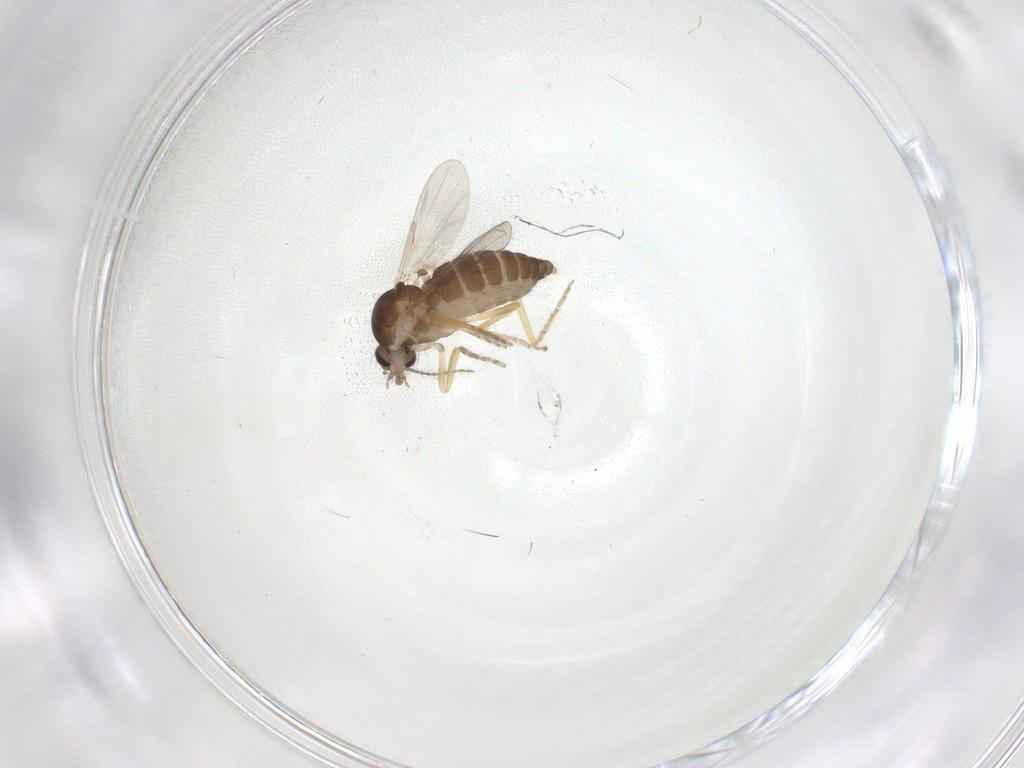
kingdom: Animalia
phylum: Arthropoda
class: Insecta
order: Diptera
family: Ceratopogonidae
